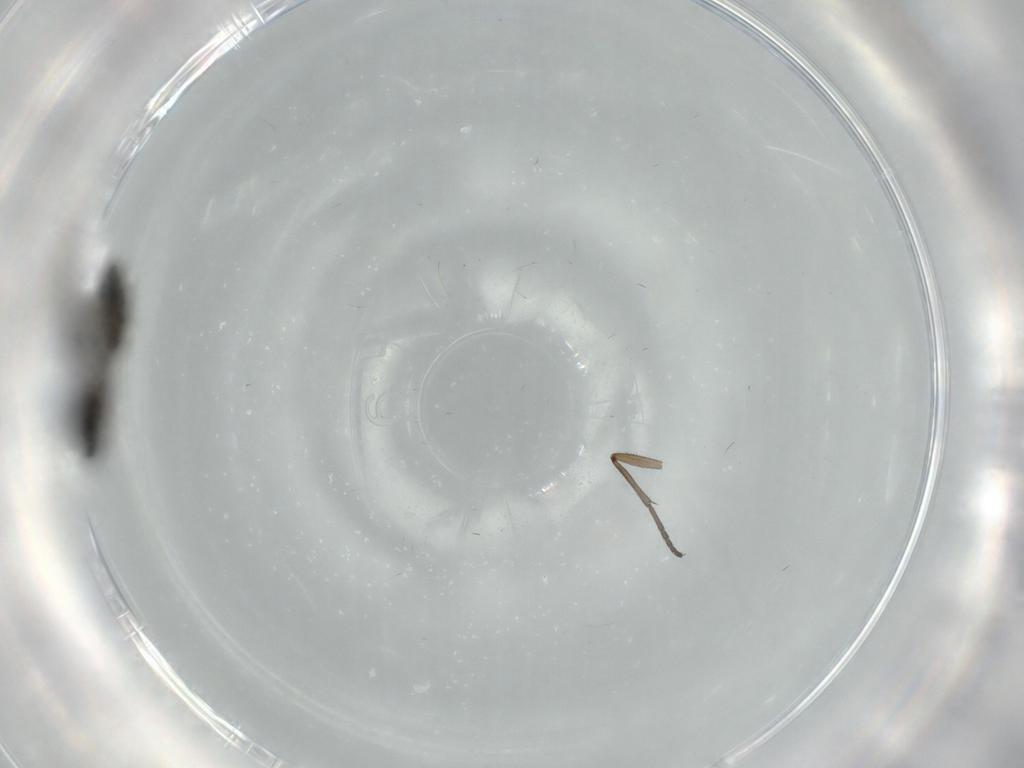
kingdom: Animalia
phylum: Arthropoda
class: Insecta
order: Diptera
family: Sciaridae
